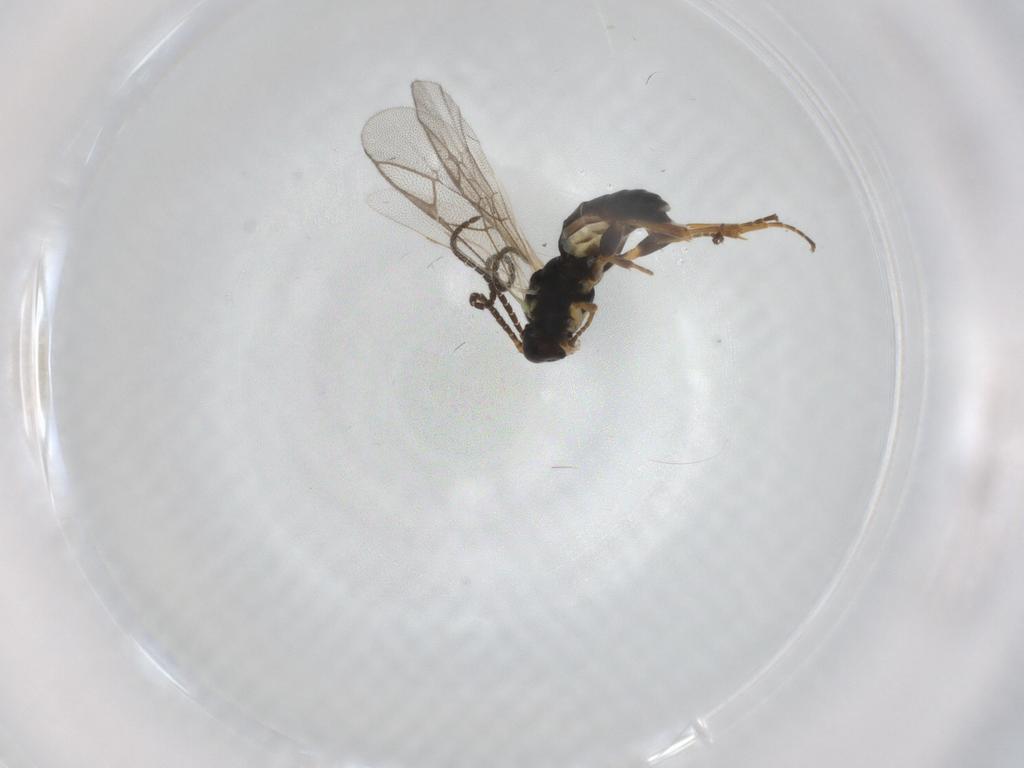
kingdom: Animalia
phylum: Arthropoda
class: Insecta
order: Hymenoptera
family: Ichneumonidae
